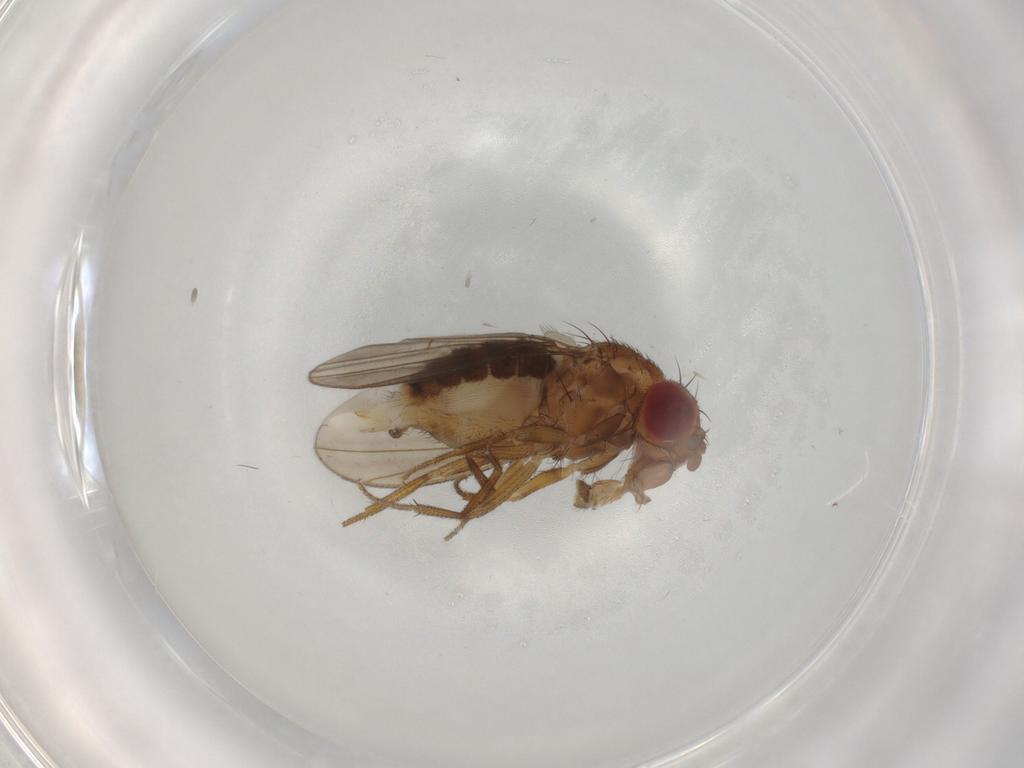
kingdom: Animalia
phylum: Arthropoda
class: Insecta
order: Diptera
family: Drosophilidae
